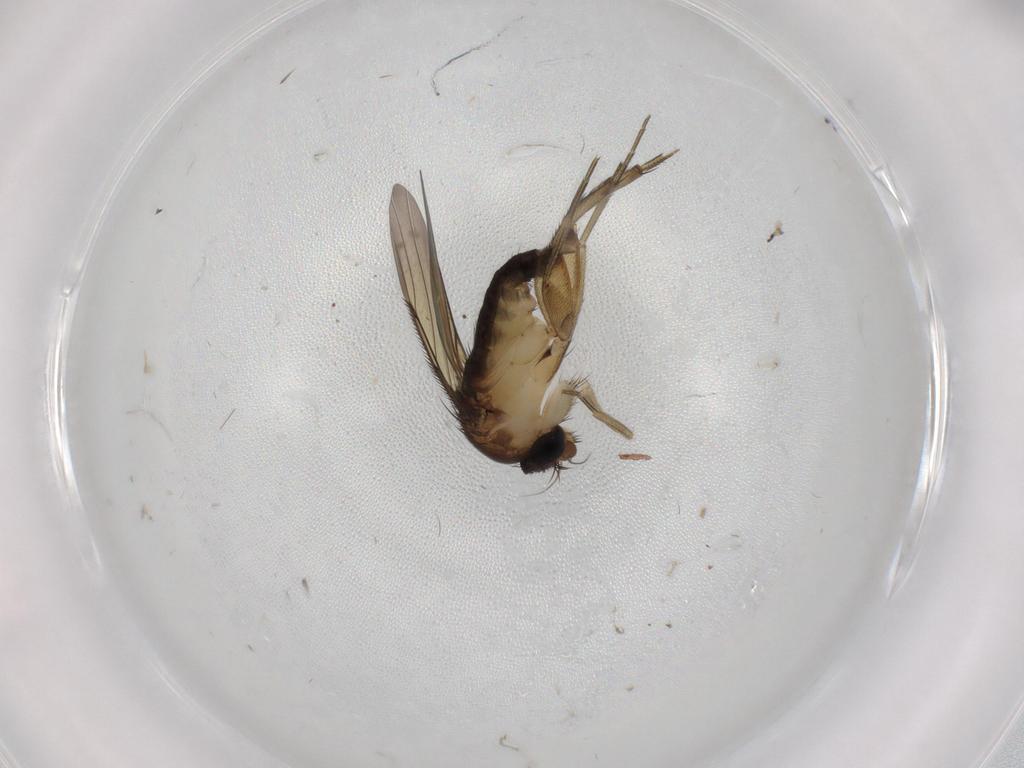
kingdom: Animalia
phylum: Arthropoda
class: Insecta
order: Diptera
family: Phoridae
